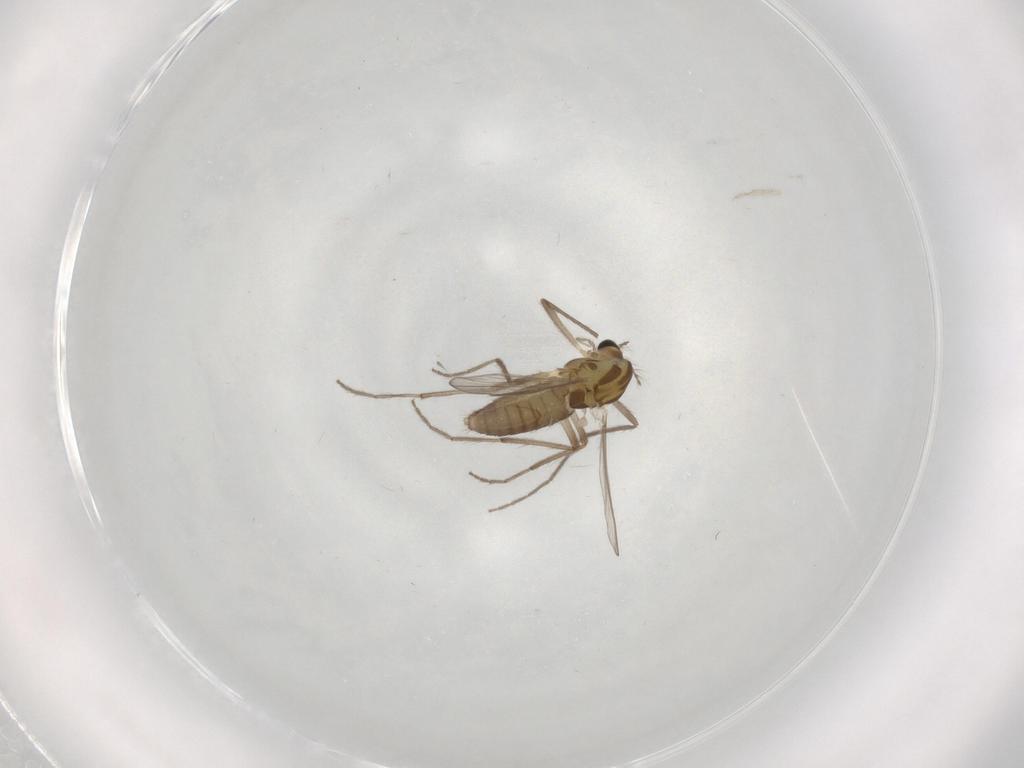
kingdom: Animalia
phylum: Arthropoda
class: Insecta
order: Diptera
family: Chironomidae
